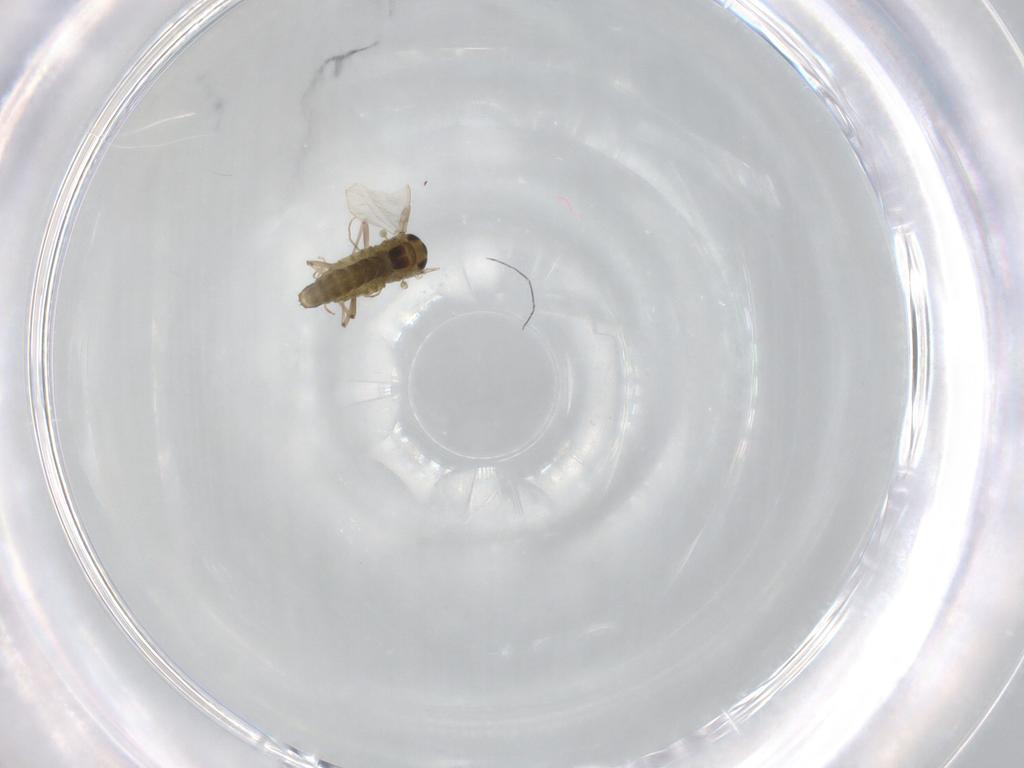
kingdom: Animalia
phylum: Arthropoda
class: Insecta
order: Diptera
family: Chironomidae
